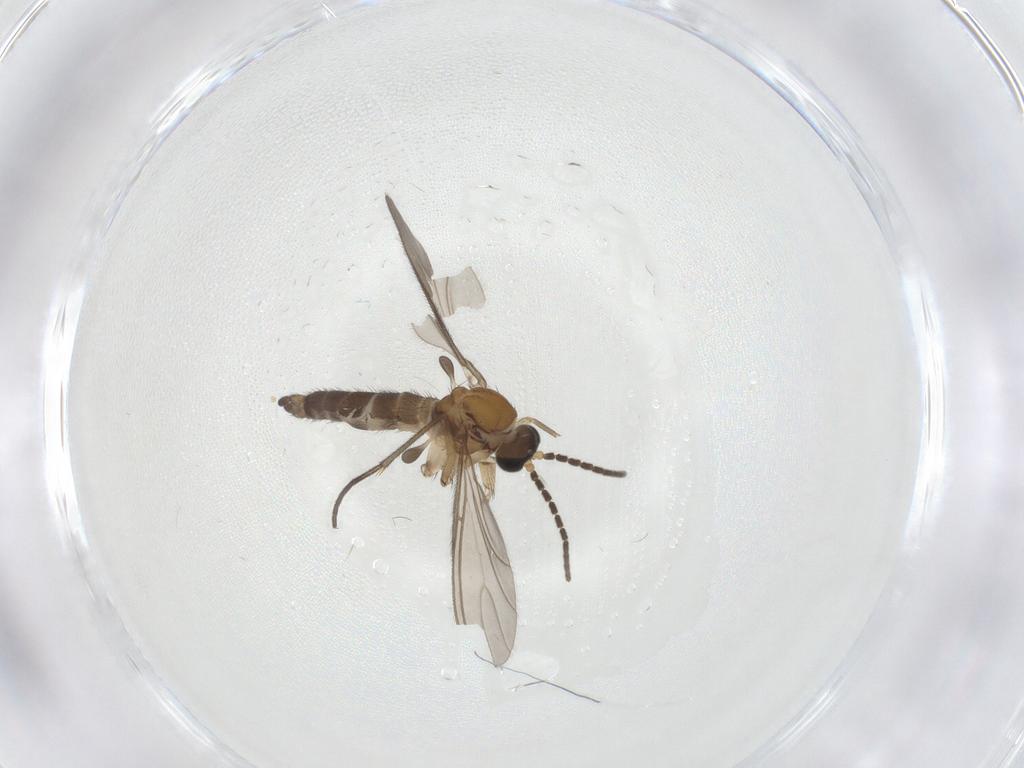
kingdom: Animalia
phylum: Arthropoda
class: Insecta
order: Diptera
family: Sciaridae
